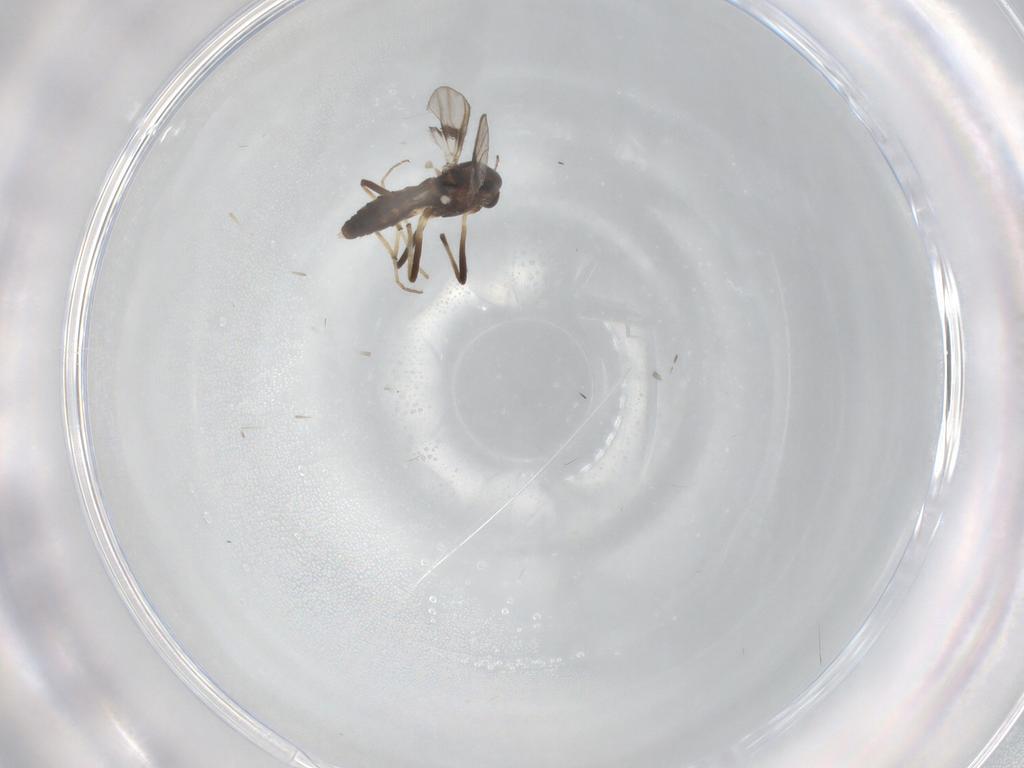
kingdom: Animalia
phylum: Arthropoda
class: Insecta
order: Diptera
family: Chironomidae
